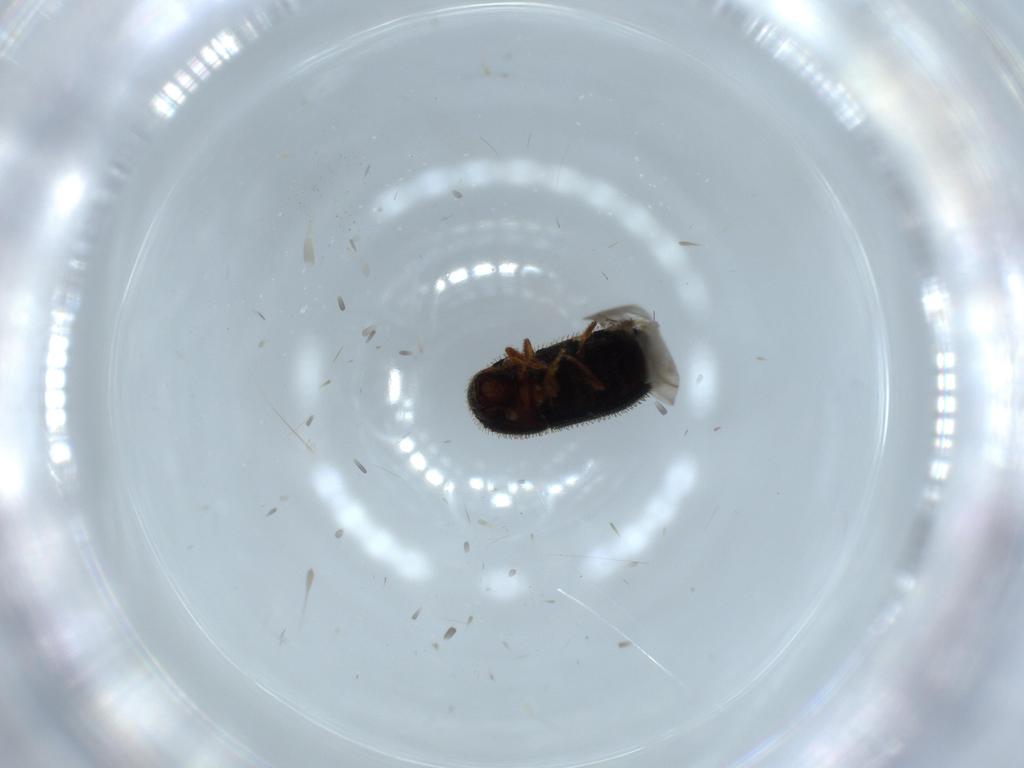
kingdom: Animalia
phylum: Arthropoda
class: Insecta
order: Coleoptera
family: Curculionidae
